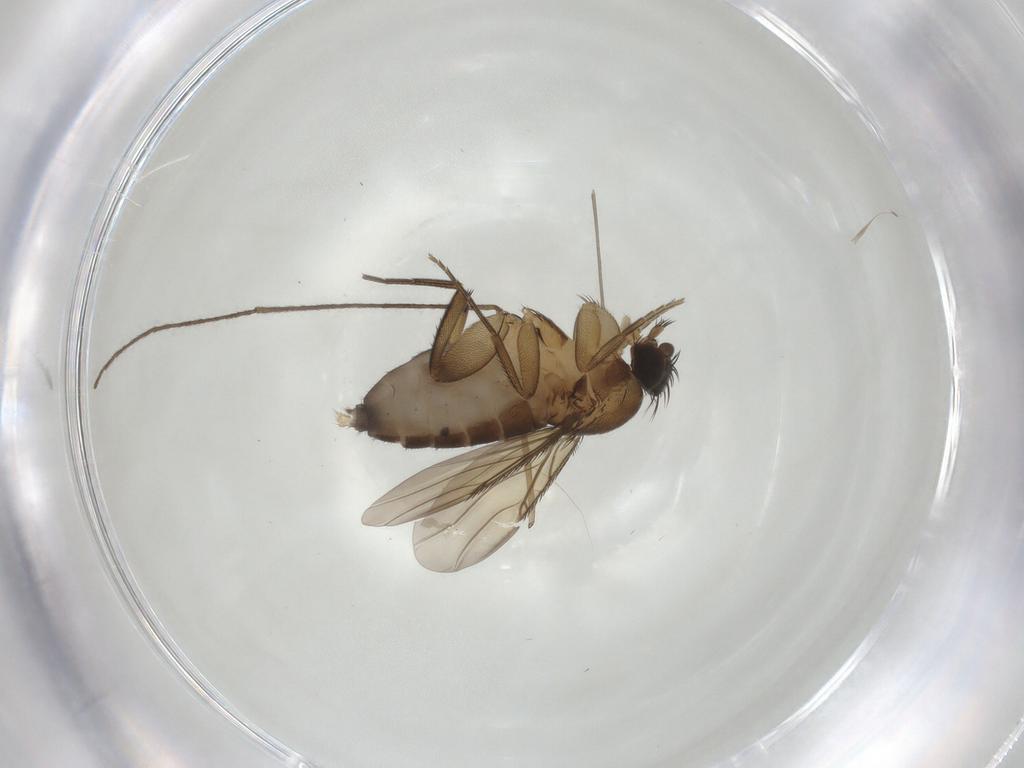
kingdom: Animalia
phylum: Arthropoda
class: Insecta
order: Diptera
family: Phoridae
